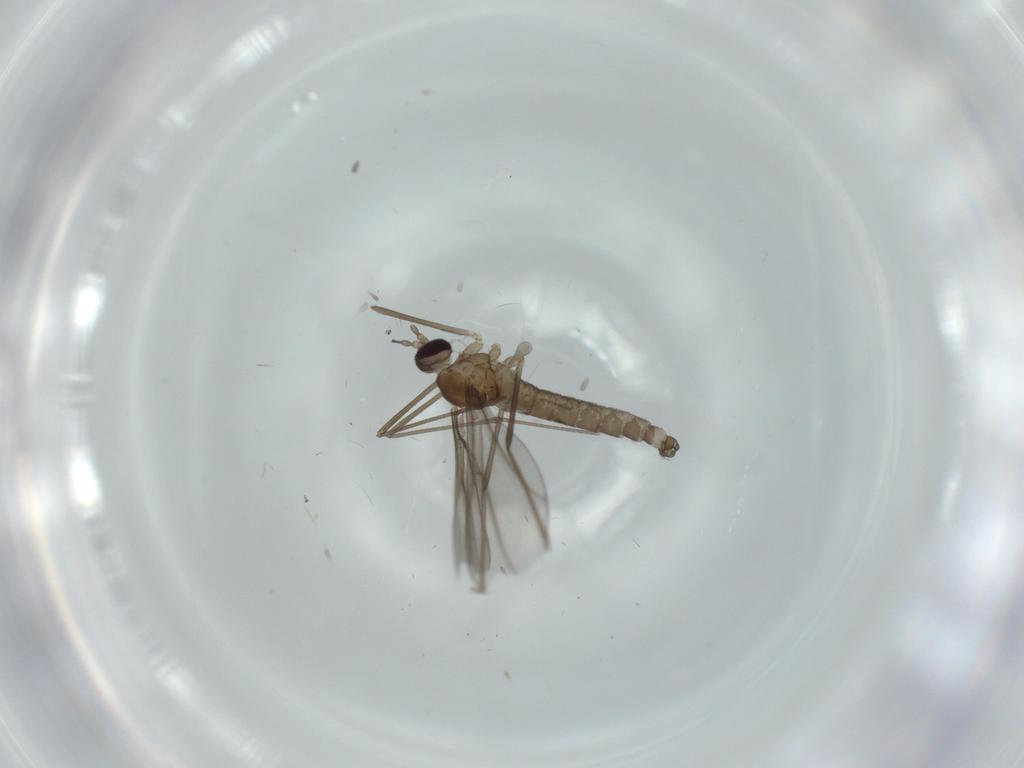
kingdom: Animalia
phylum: Arthropoda
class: Insecta
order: Diptera
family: Cecidomyiidae
